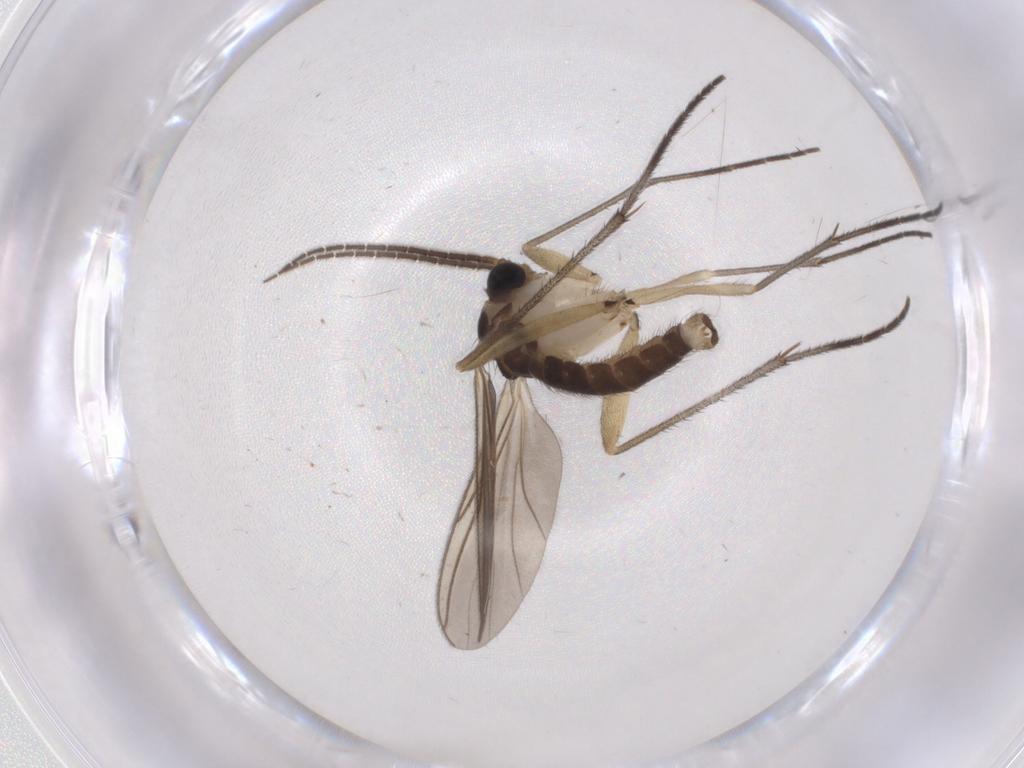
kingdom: Animalia
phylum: Arthropoda
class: Insecta
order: Diptera
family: Sciaridae
